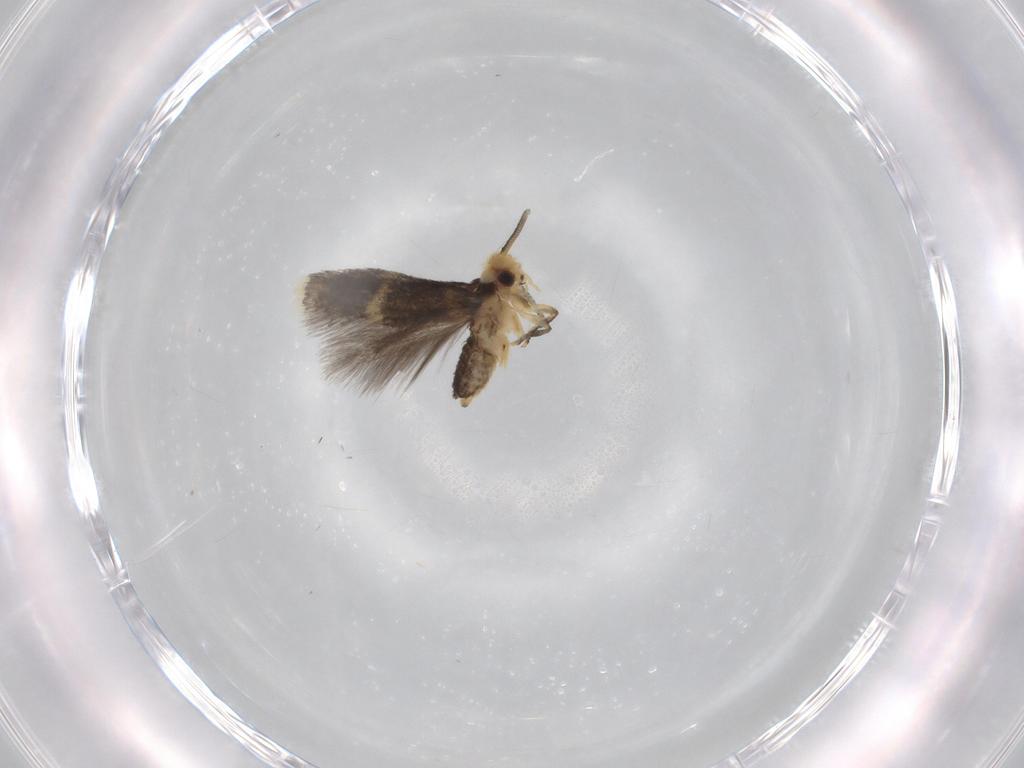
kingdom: Animalia
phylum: Arthropoda
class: Insecta
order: Lepidoptera
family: Nepticulidae
